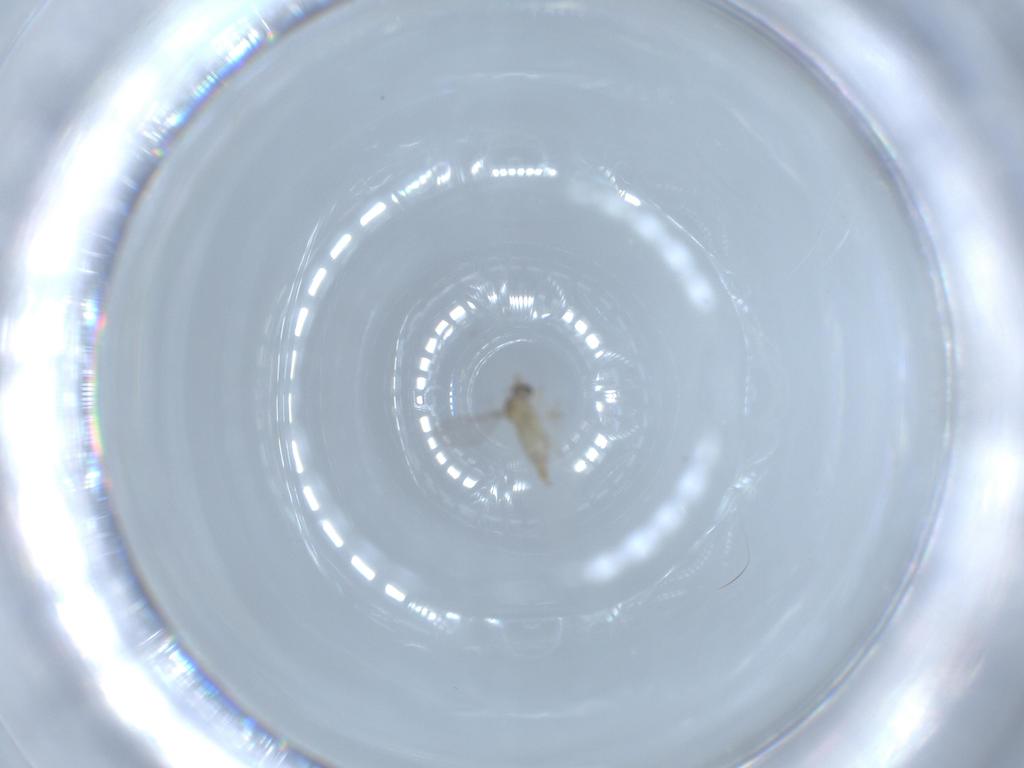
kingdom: Animalia
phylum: Arthropoda
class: Insecta
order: Diptera
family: Cecidomyiidae
